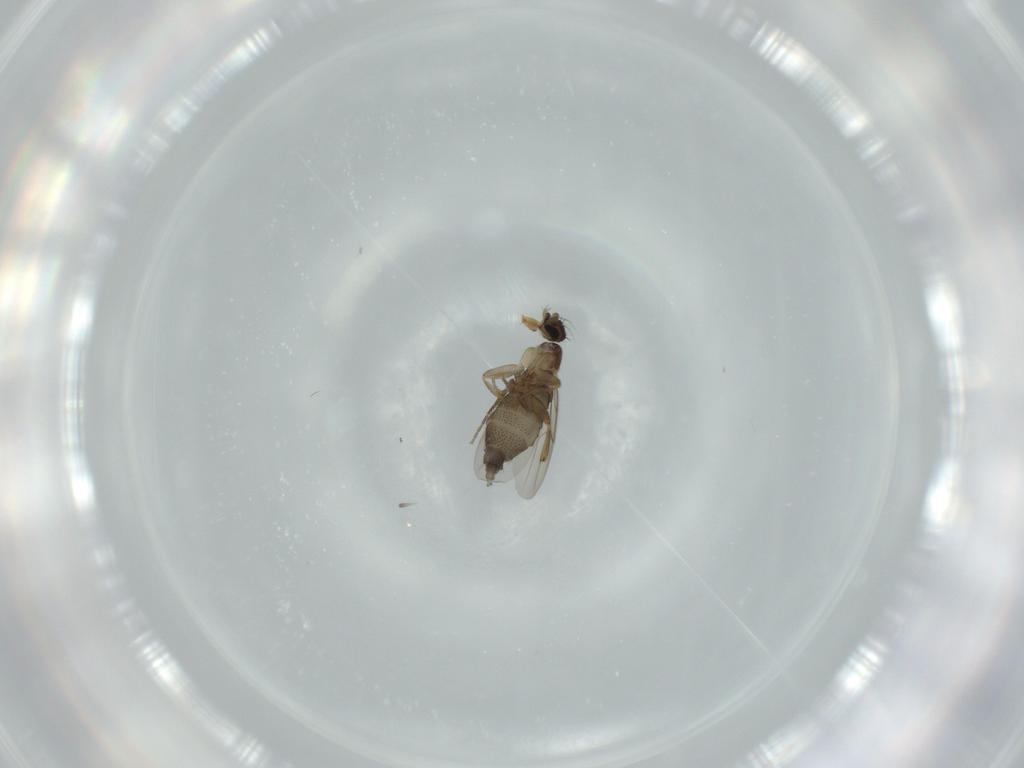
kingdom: Animalia
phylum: Arthropoda
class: Insecta
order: Diptera
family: Phoridae
